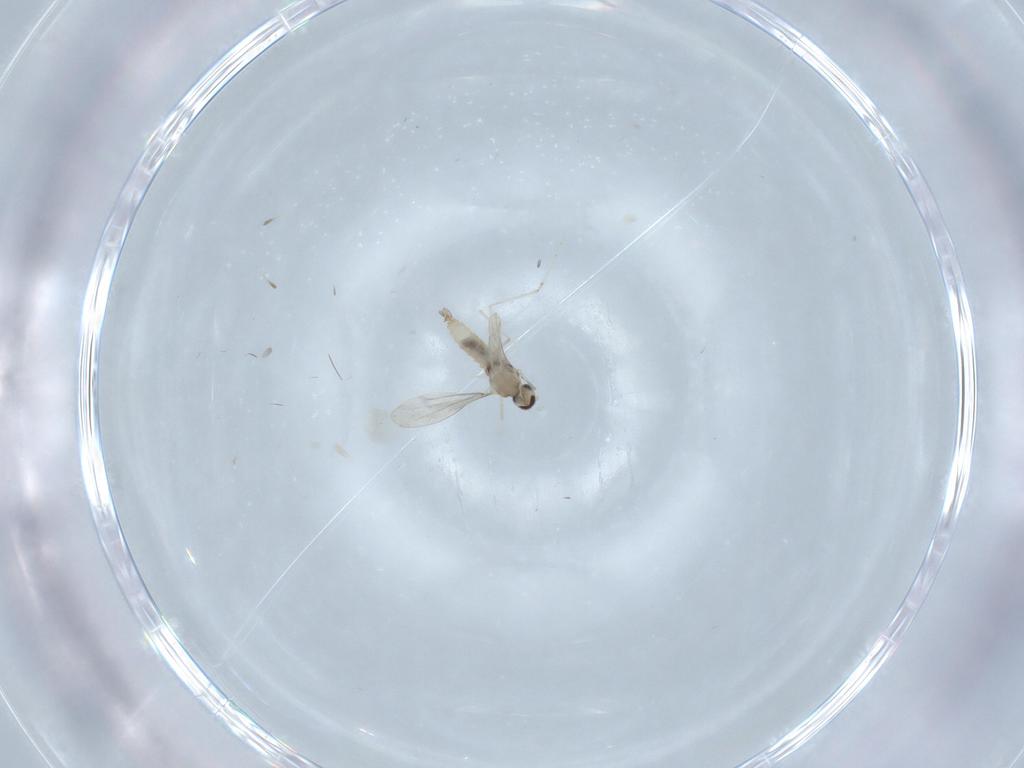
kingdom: Animalia
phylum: Arthropoda
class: Insecta
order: Diptera
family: Cecidomyiidae
